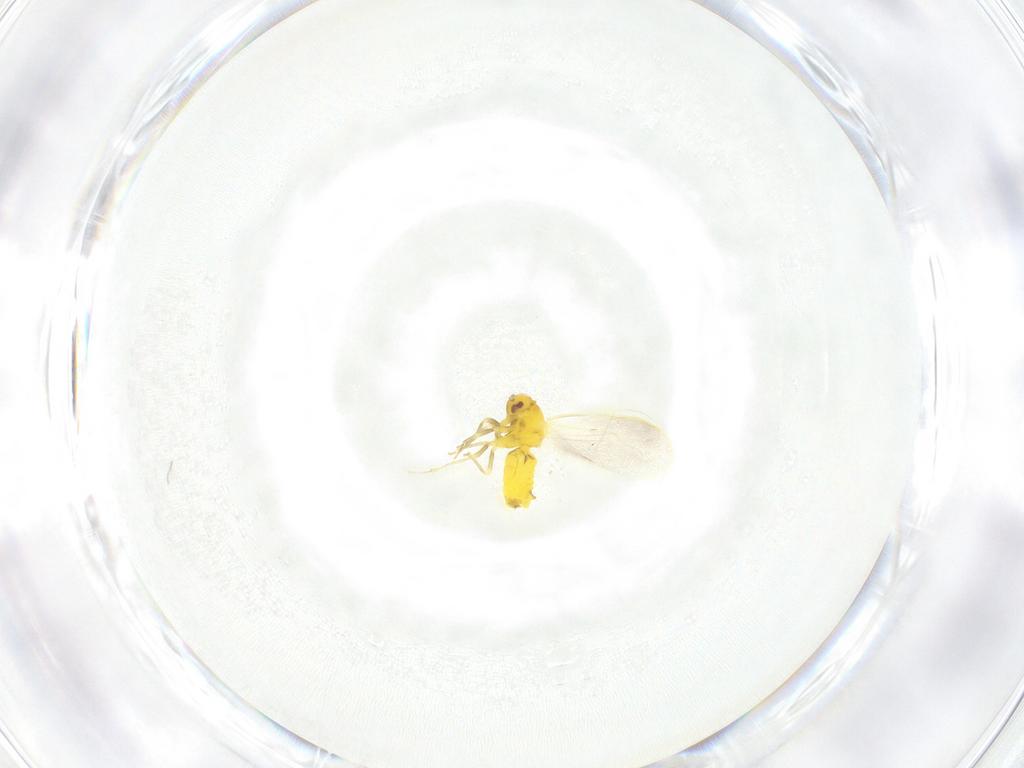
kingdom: Animalia
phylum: Arthropoda
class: Insecta
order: Hemiptera
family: Aleyrodidae
